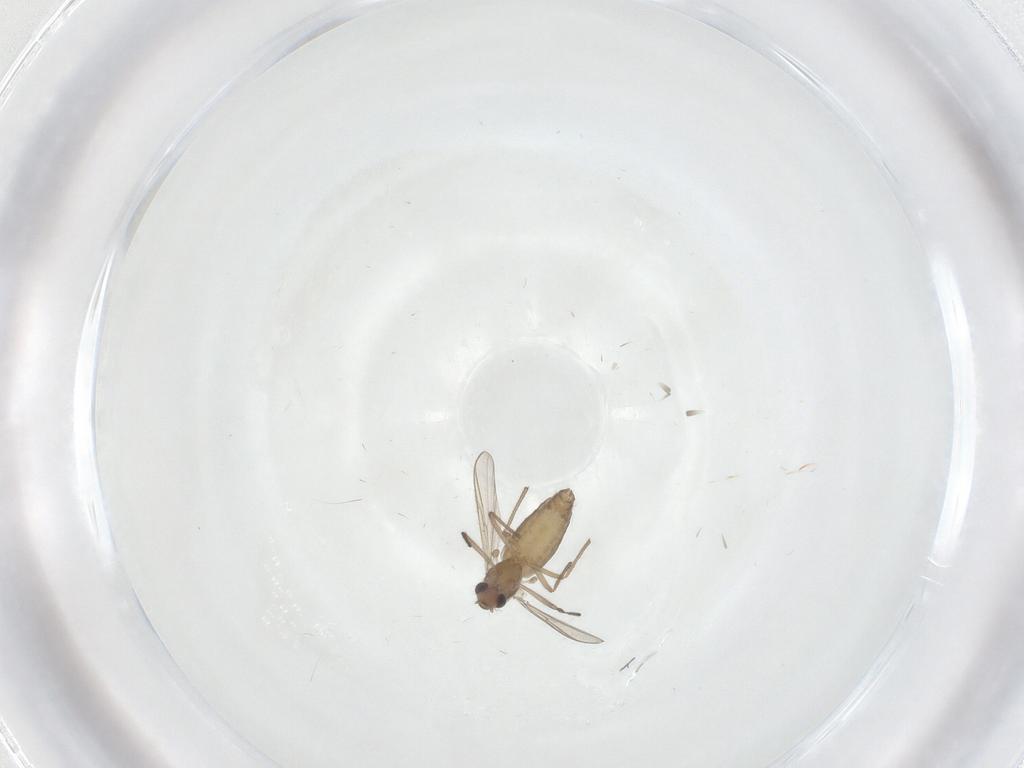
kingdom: Animalia
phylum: Arthropoda
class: Insecta
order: Diptera
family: Chironomidae
